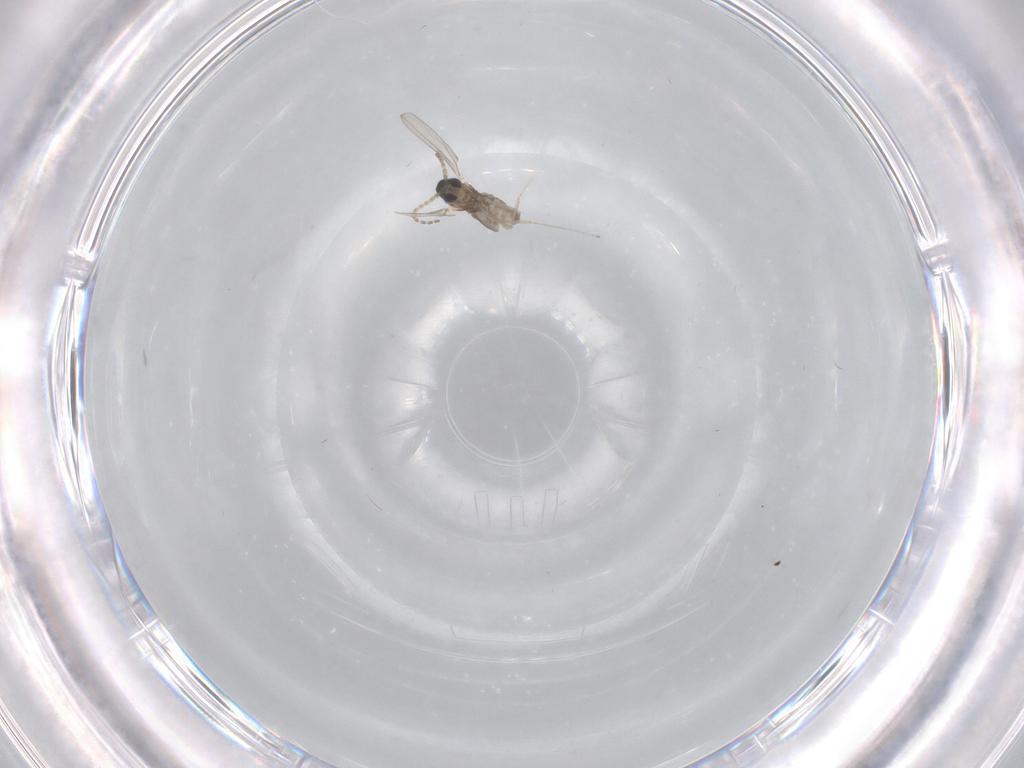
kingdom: Animalia
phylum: Arthropoda
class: Insecta
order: Diptera
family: Cecidomyiidae
